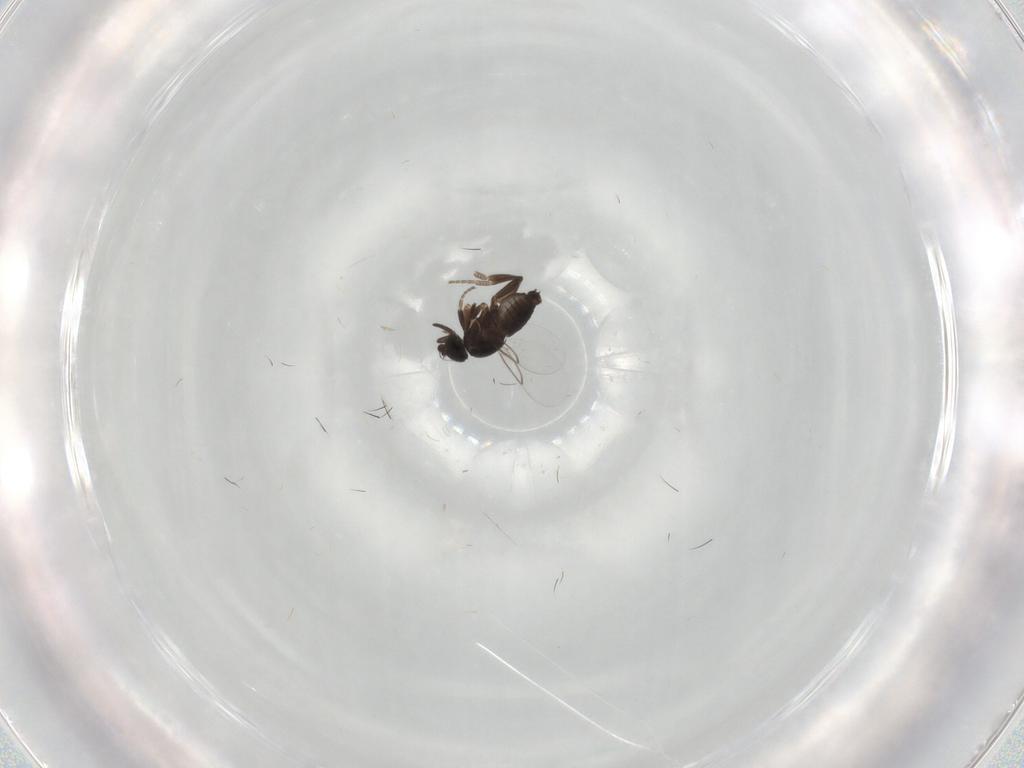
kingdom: Animalia
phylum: Arthropoda
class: Insecta
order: Diptera
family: Phoridae
